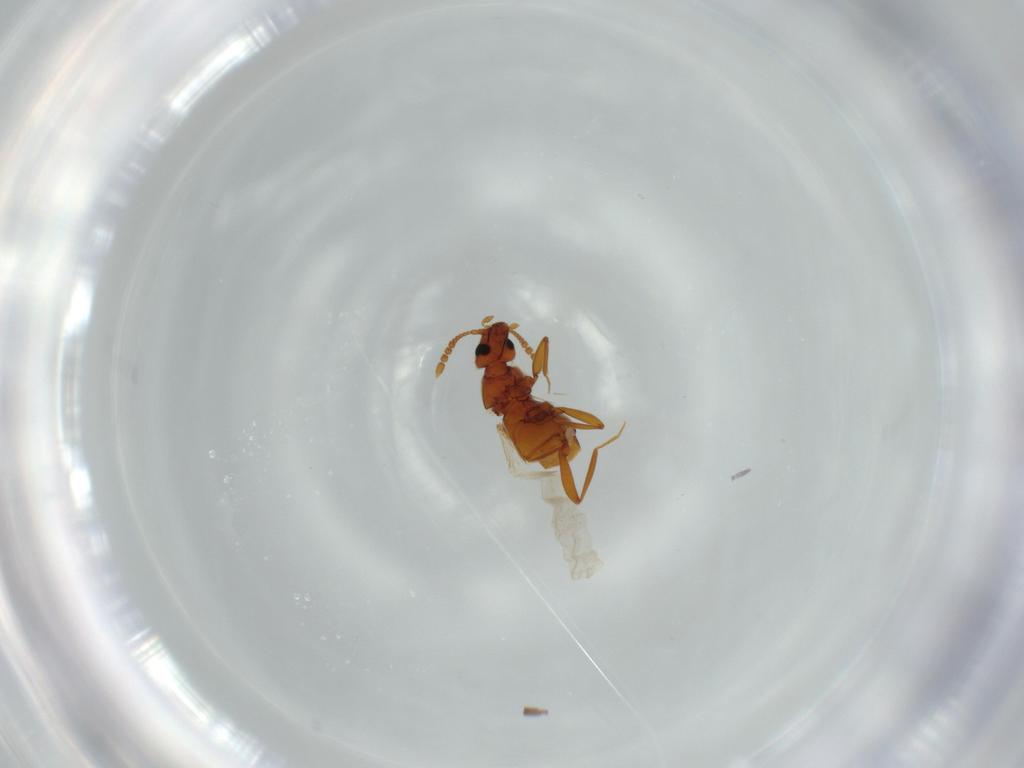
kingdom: Animalia
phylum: Arthropoda
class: Insecta
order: Coleoptera
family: Staphylinidae
